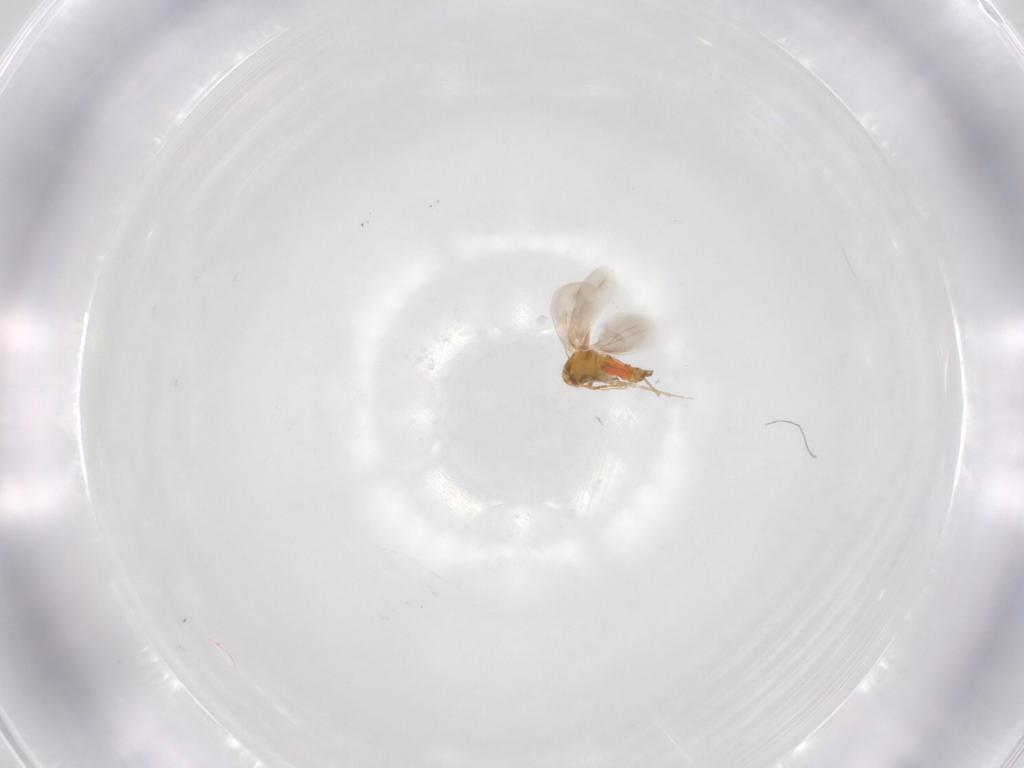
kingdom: Animalia
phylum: Arthropoda
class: Insecta
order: Hemiptera
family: Aleyrodidae
